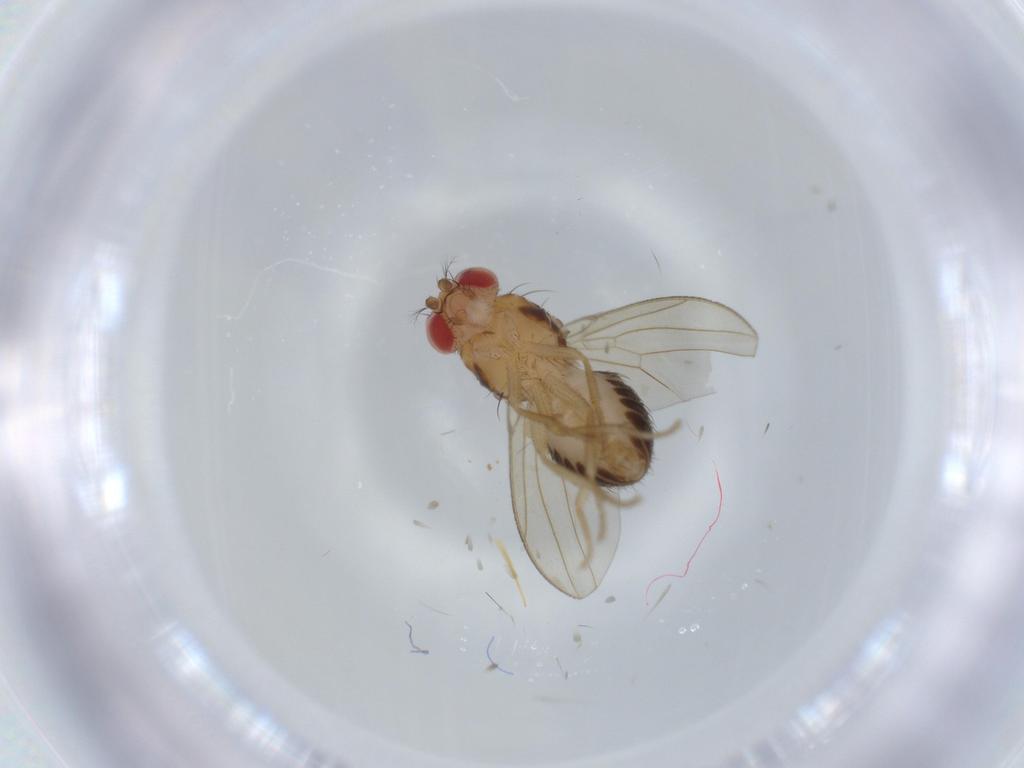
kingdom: Animalia
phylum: Arthropoda
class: Insecta
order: Diptera
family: Drosophilidae
